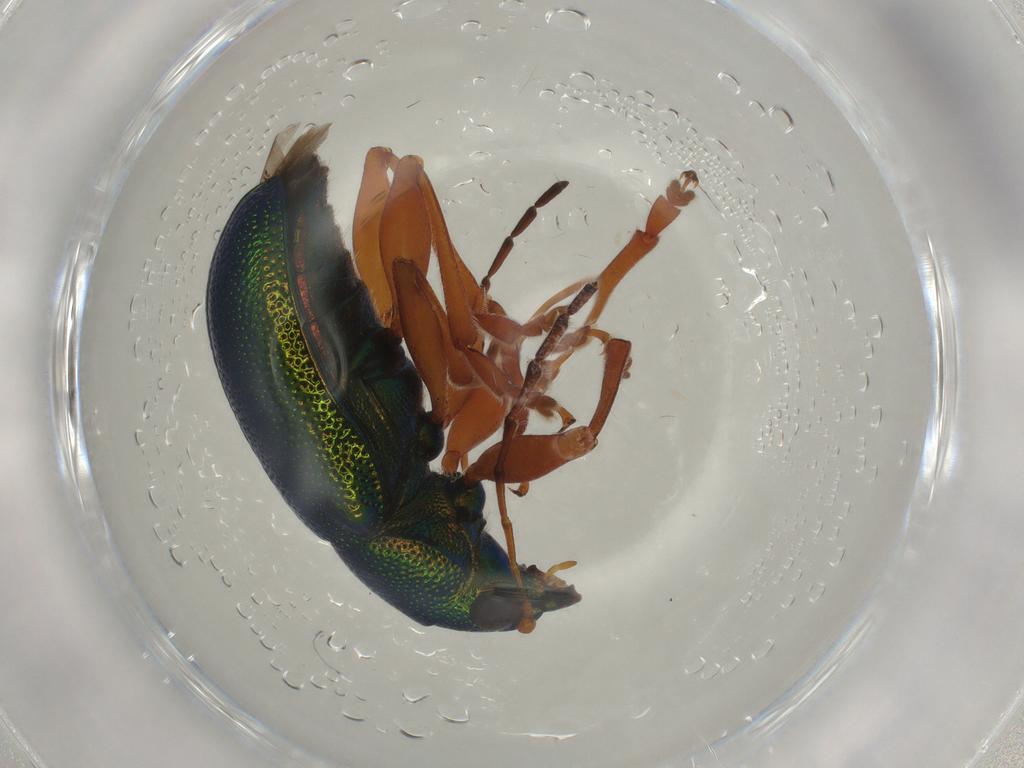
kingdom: Animalia
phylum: Arthropoda
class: Insecta
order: Coleoptera
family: Chrysomelidae
